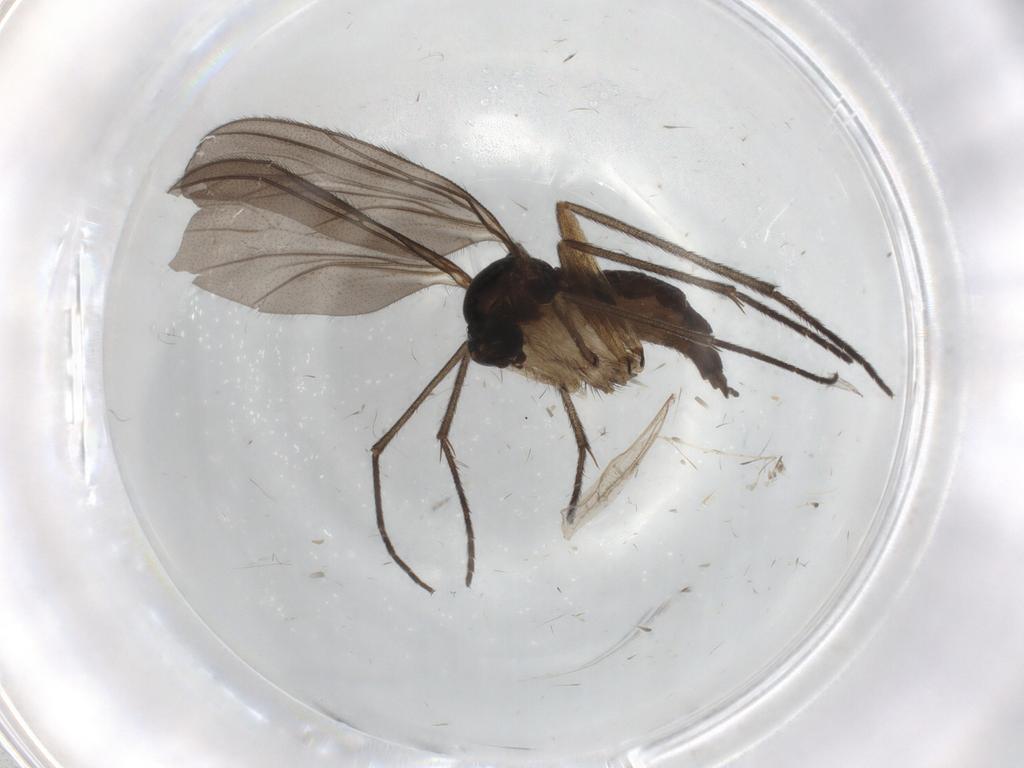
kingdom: Animalia
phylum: Arthropoda
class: Insecta
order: Diptera
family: Sciaridae
